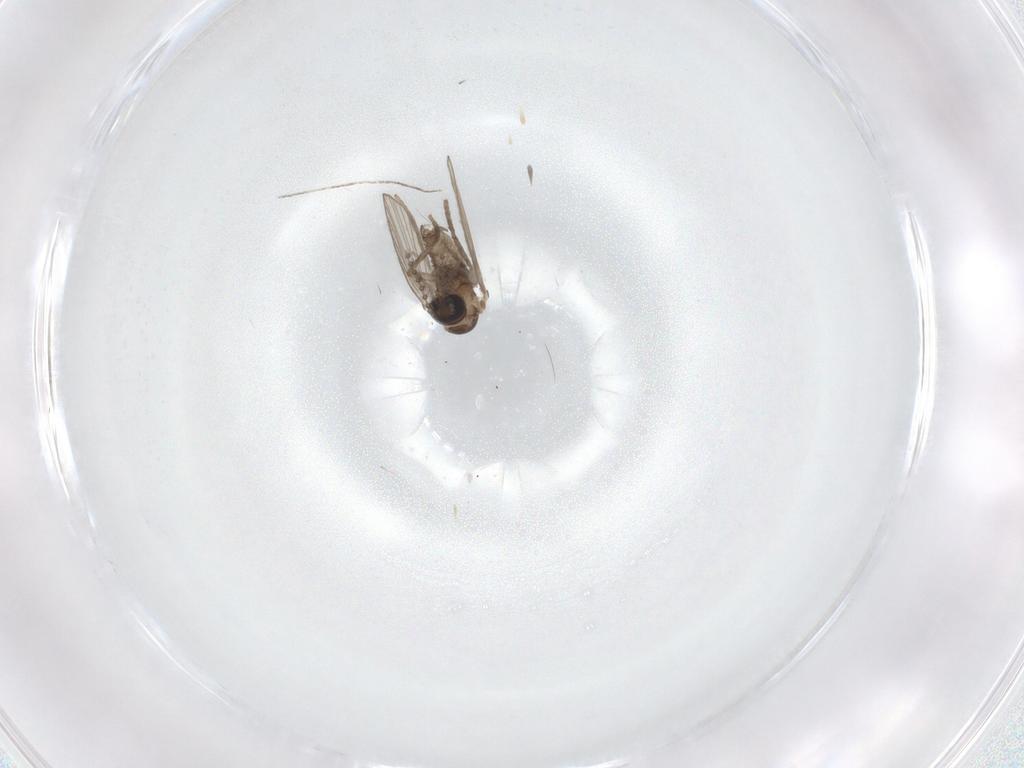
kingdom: Animalia
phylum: Arthropoda
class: Insecta
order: Diptera
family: Psychodidae
